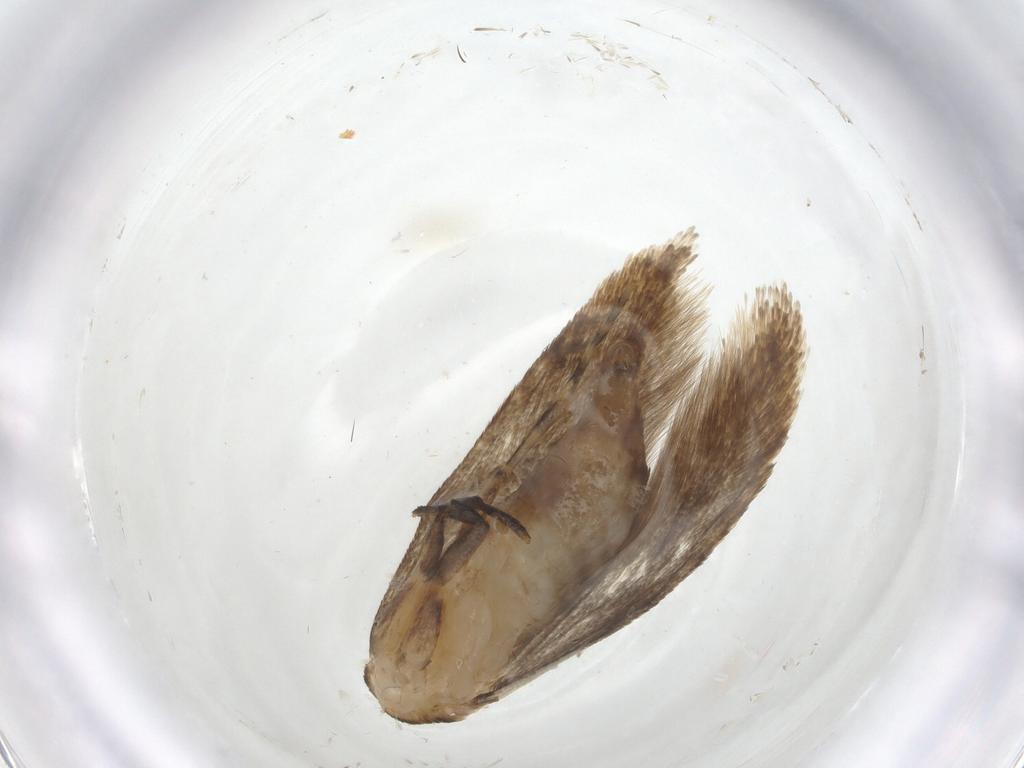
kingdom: Animalia
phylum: Arthropoda
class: Insecta
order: Lepidoptera
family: Tineidae
